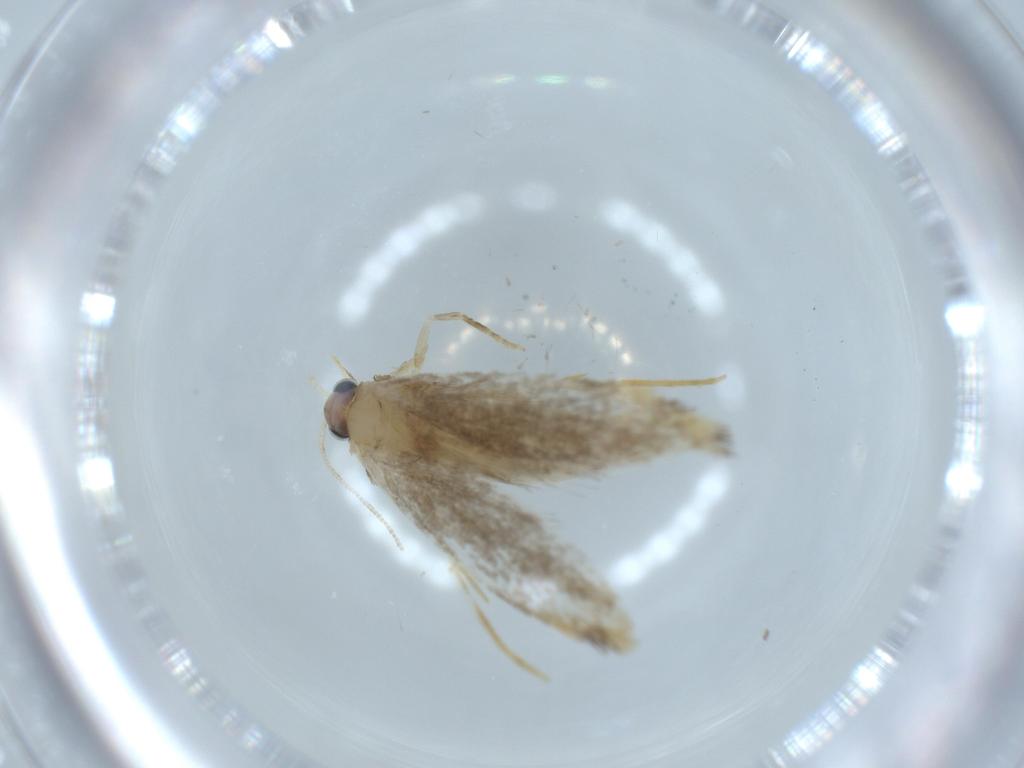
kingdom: Animalia
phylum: Arthropoda
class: Insecta
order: Lepidoptera
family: Nepticulidae
